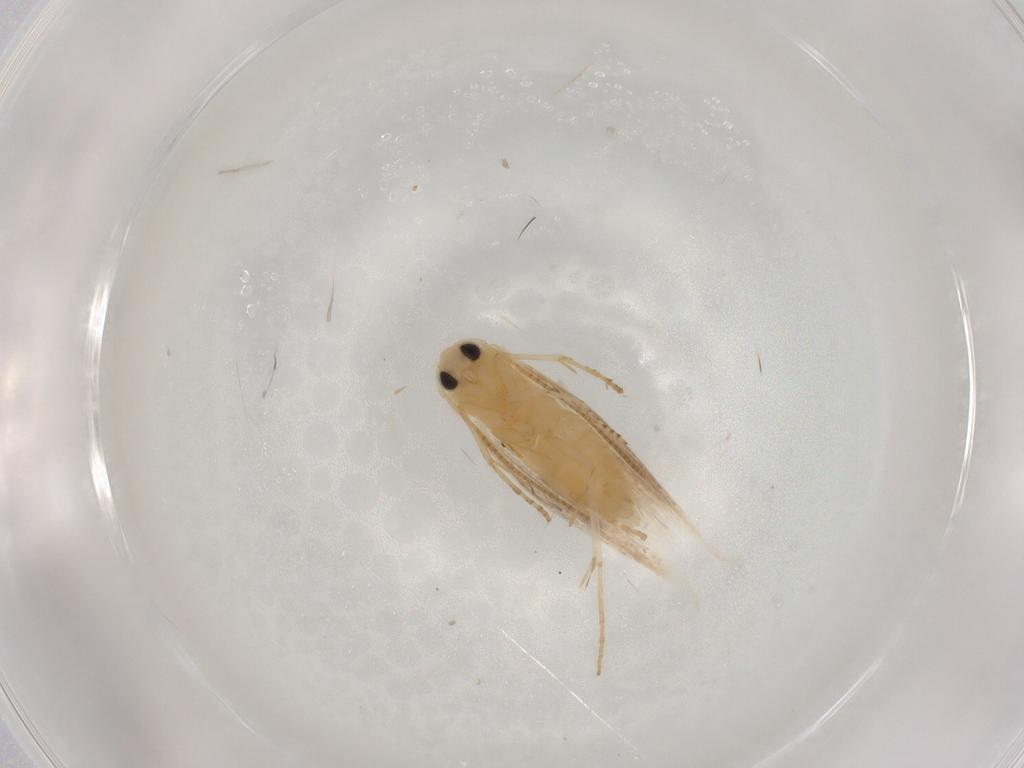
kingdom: Animalia
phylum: Arthropoda
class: Insecta
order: Lepidoptera
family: Bucculatricidae
